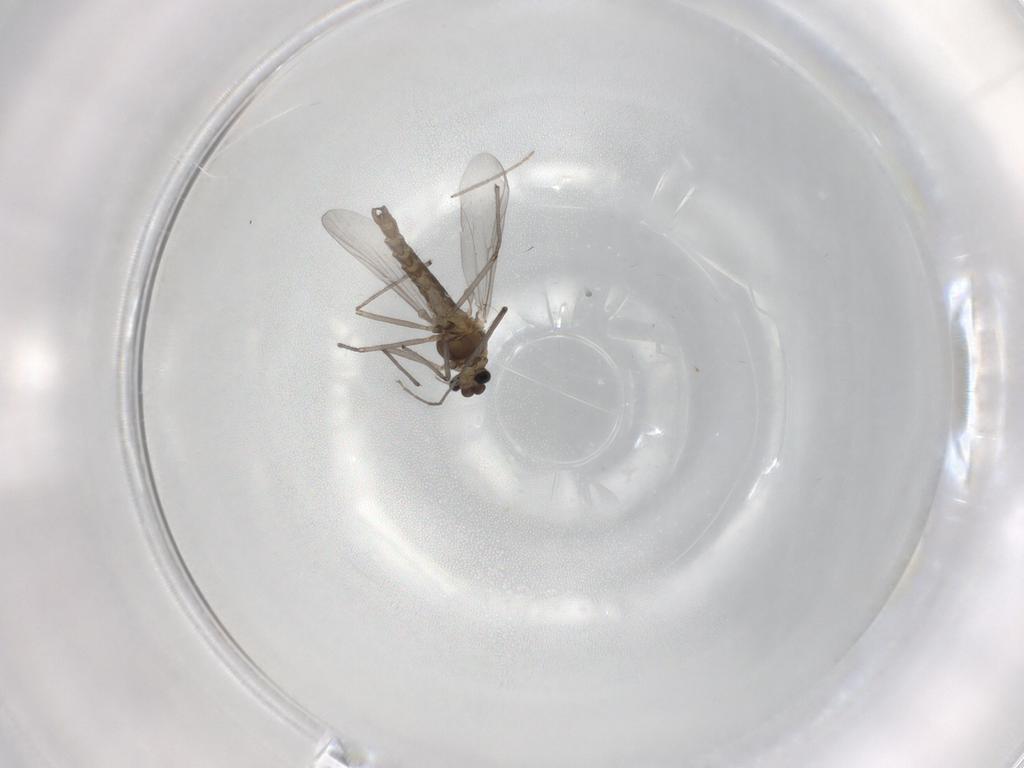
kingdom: Animalia
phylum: Arthropoda
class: Insecta
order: Diptera
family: Chironomidae
